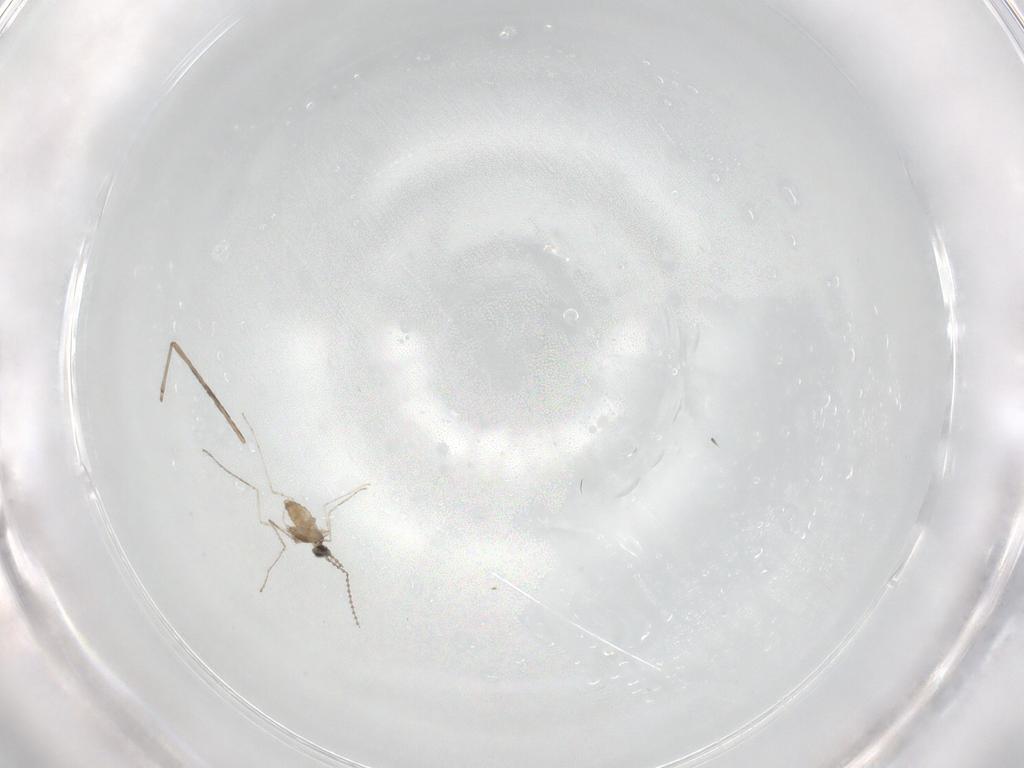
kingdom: Animalia
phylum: Arthropoda
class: Insecta
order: Diptera
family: Cecidomyiidae
